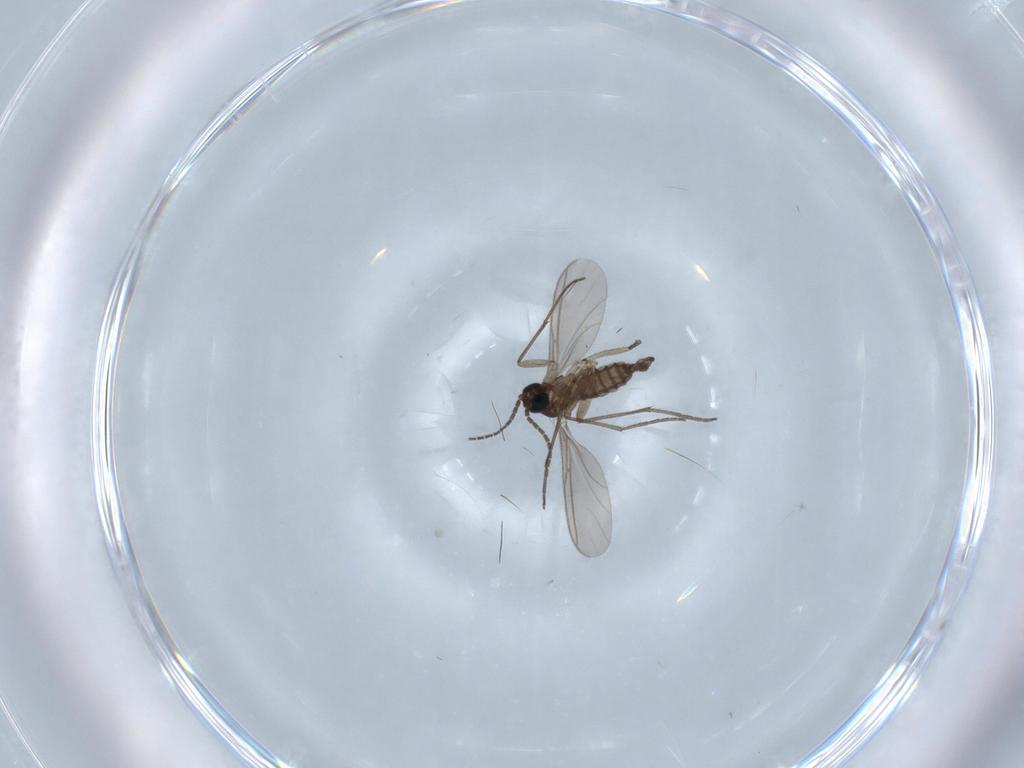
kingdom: Animalia
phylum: Arthropoda
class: Insecta
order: Diptera
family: Sciaridae
